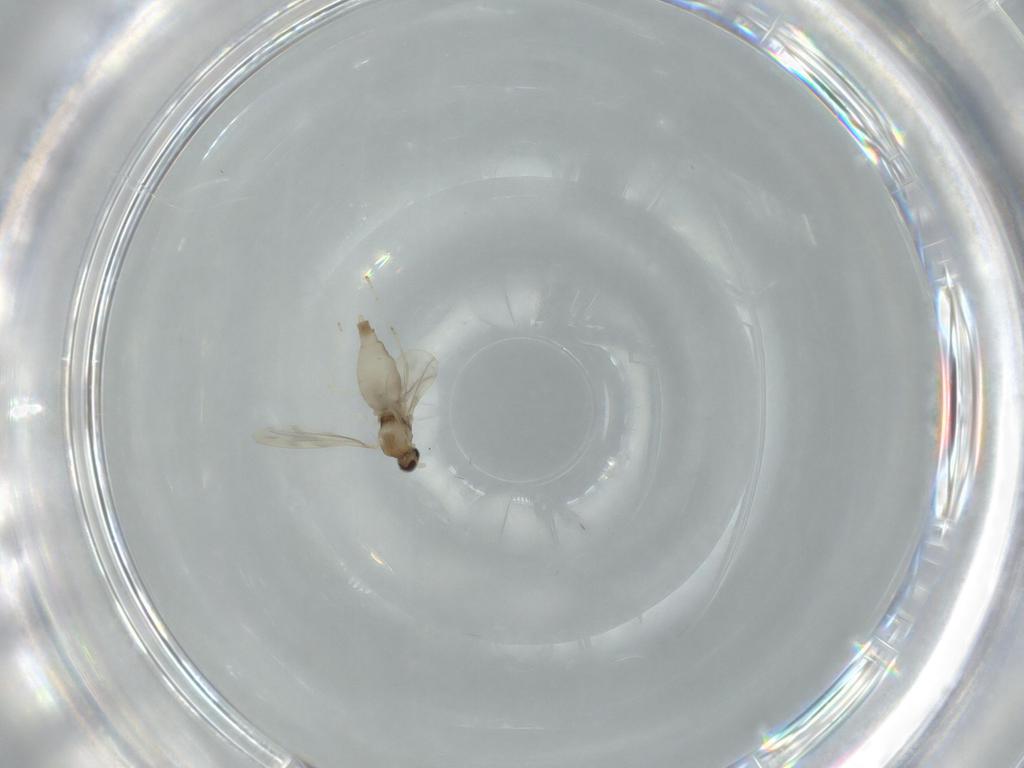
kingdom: Animalia
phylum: Arthropoda
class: Insecta
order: Diptera
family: Cecidomyiidae
